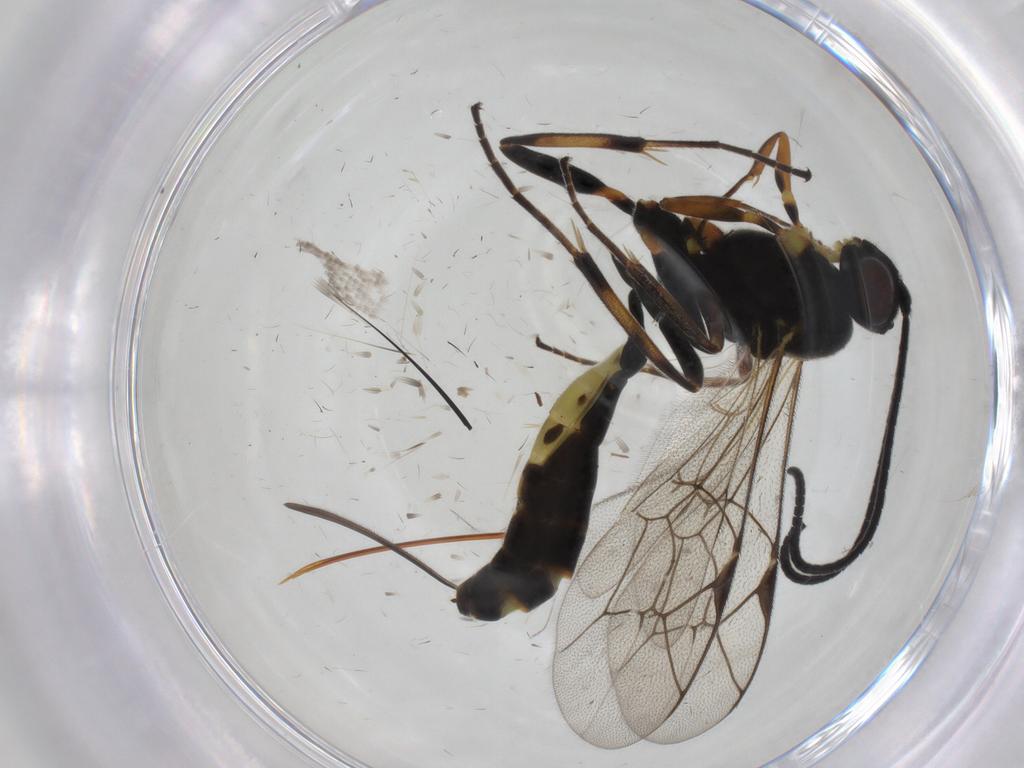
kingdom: Animalia
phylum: Arthropoda
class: Insecta
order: Hymenoptera
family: Ichneumonidae
